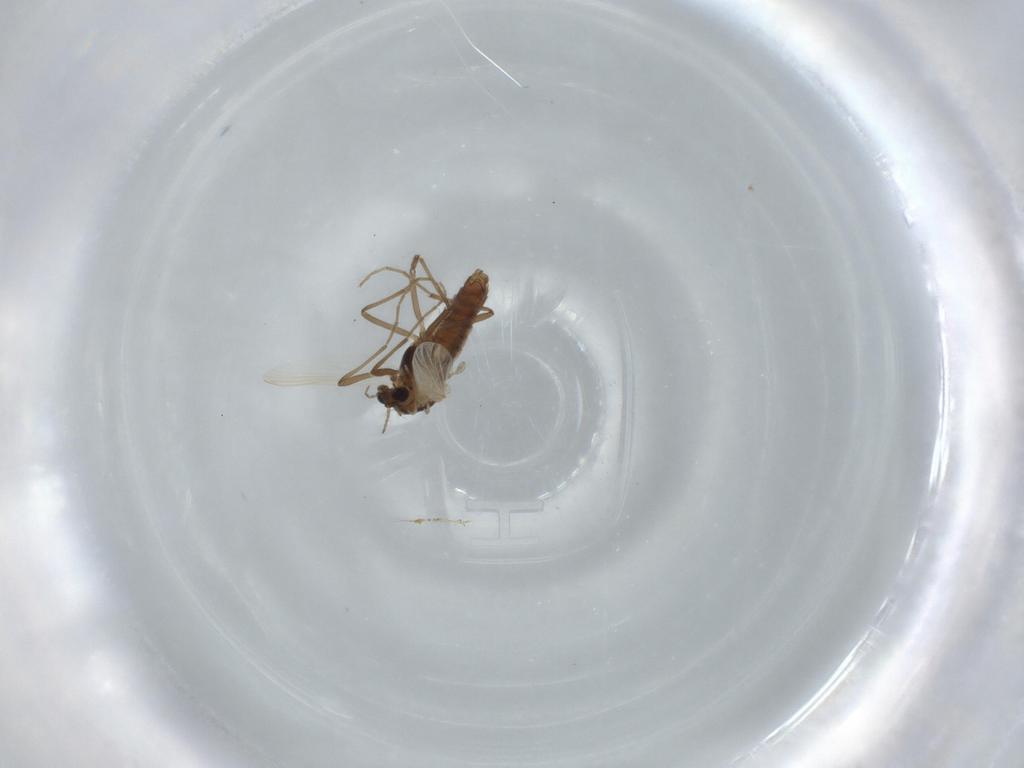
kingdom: Animalia
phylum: Arthropoda
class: Insecta
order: Diptera
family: Chironomidae
